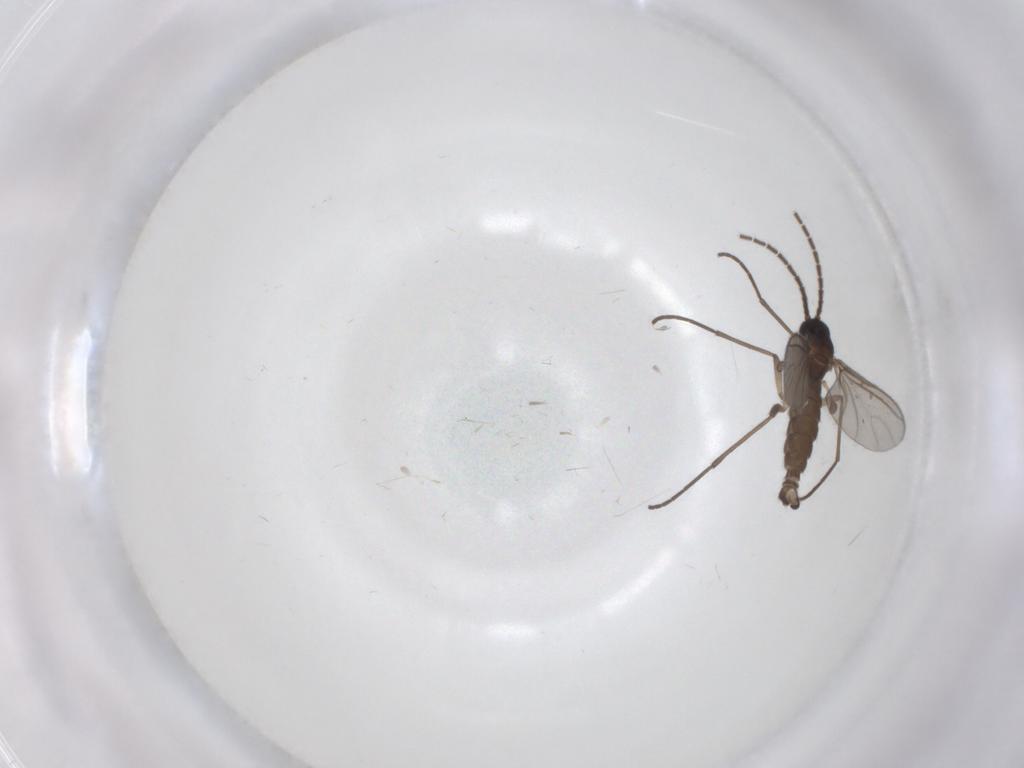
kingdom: Animalia
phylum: Arthropoda
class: Insecta
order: Diptera
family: Sciaridae
